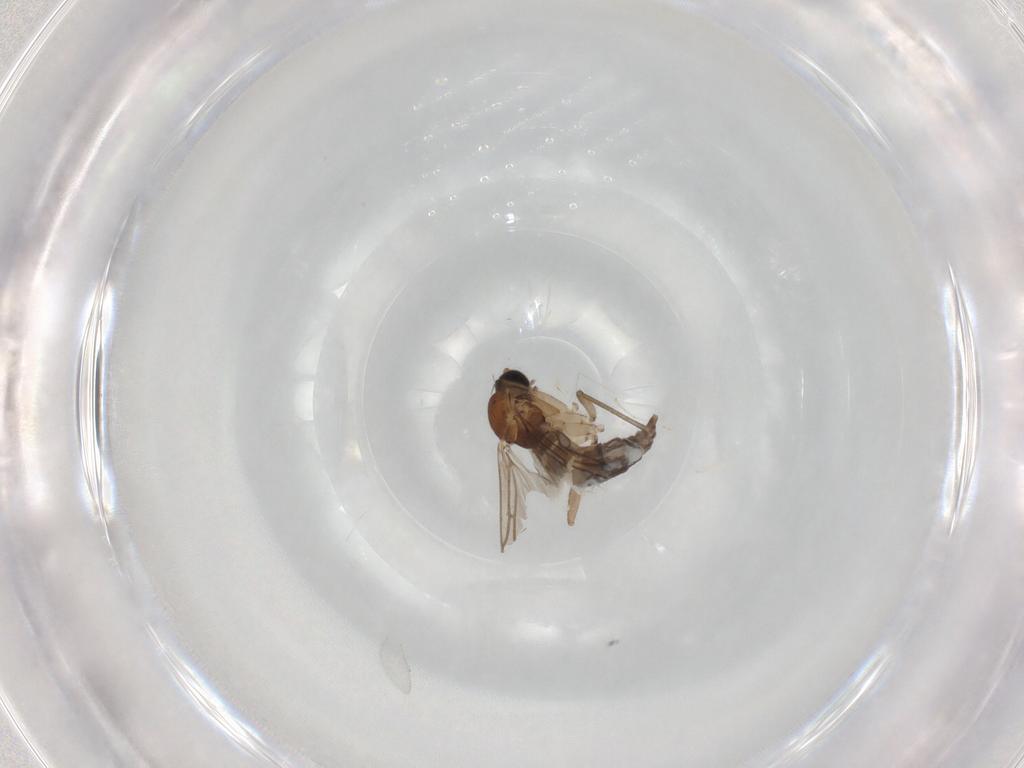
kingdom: Animalia
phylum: Arthropoda
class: Insecta
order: Diptera
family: Sciaridae
